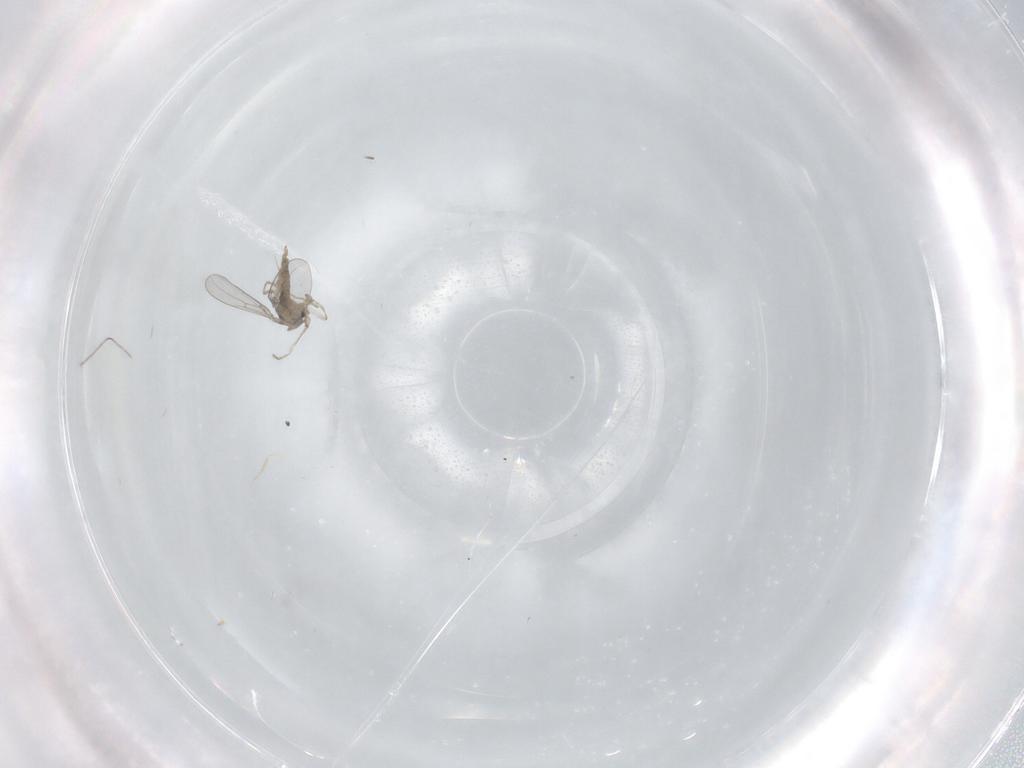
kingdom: Animalia
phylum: Arthropoda
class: Insecta
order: Diptera
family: Cecidomyiidae
